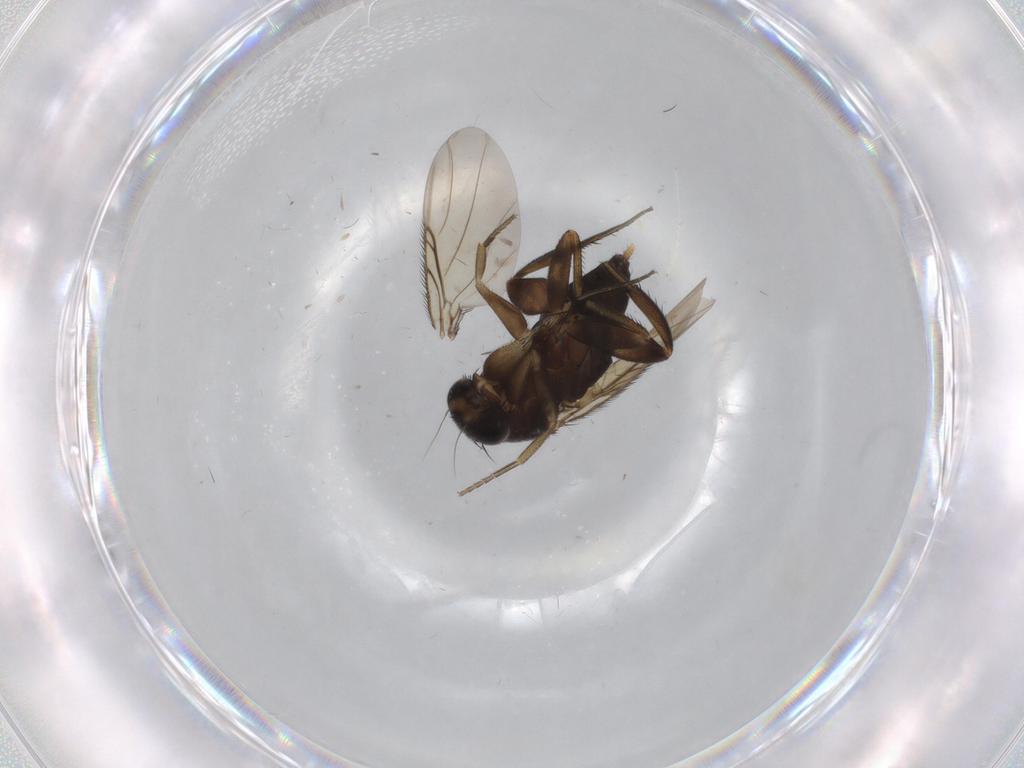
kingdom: Animalia
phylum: Arthropoda
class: Insecta
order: Diptera
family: Phoridae
